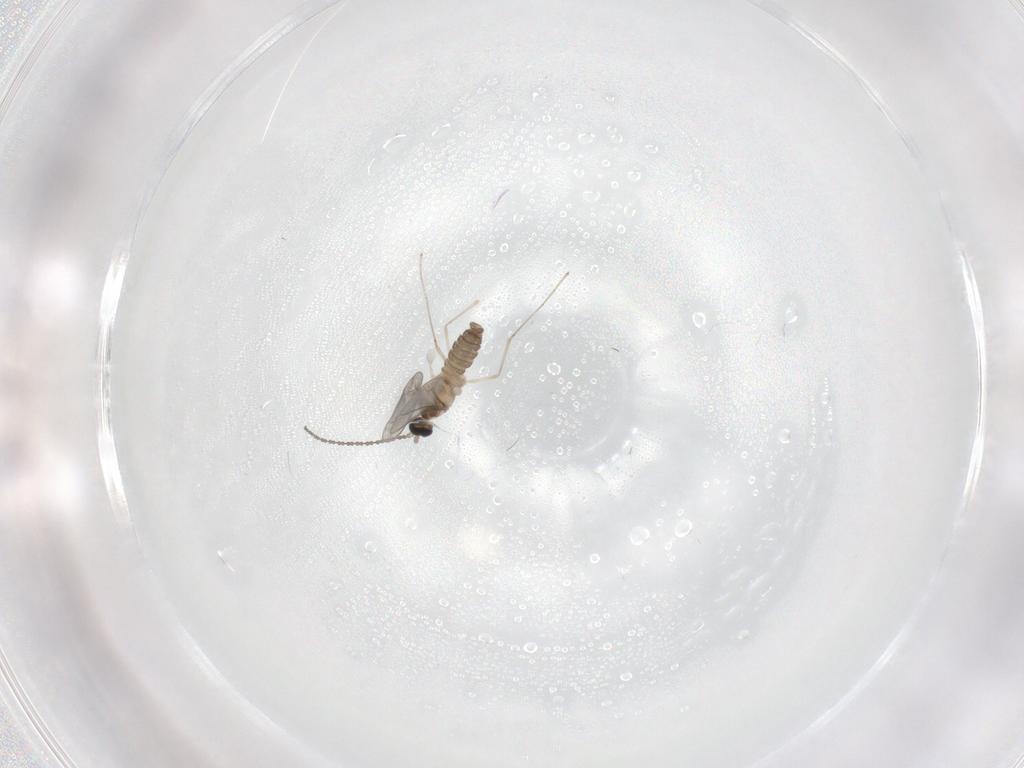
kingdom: Animalia
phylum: Arthropoda
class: Insecta
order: Diptera
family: Cecidomyiidae
